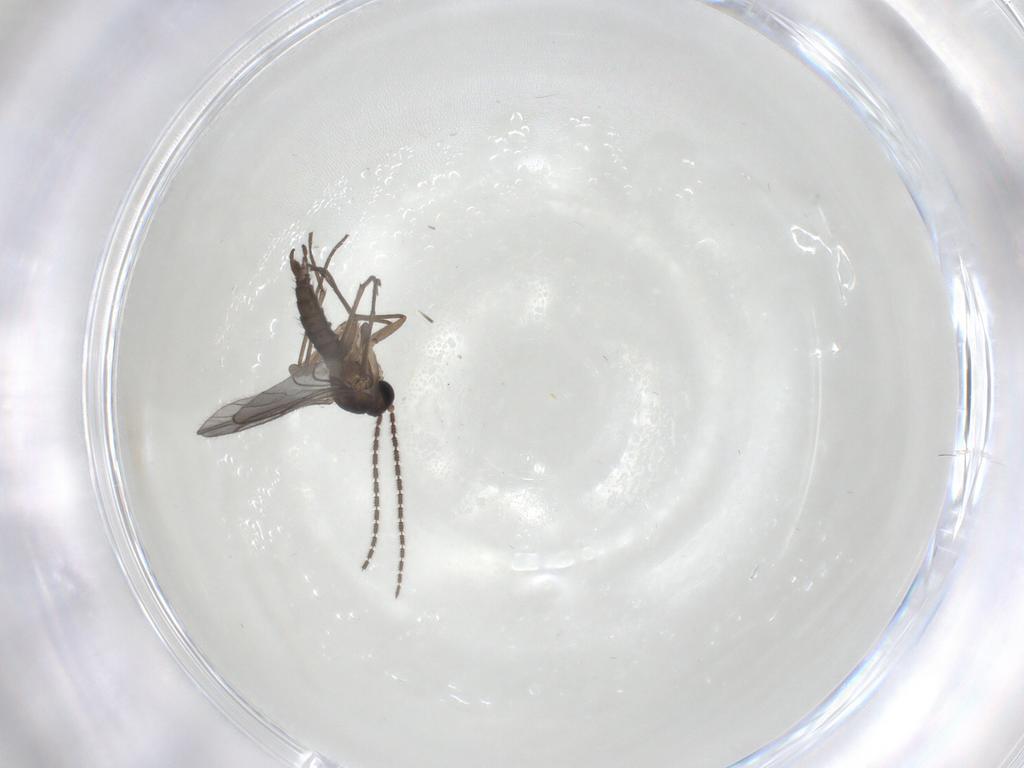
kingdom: Animalia
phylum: Arthropoda
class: Insecta
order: Diptera
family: Sciaridae
